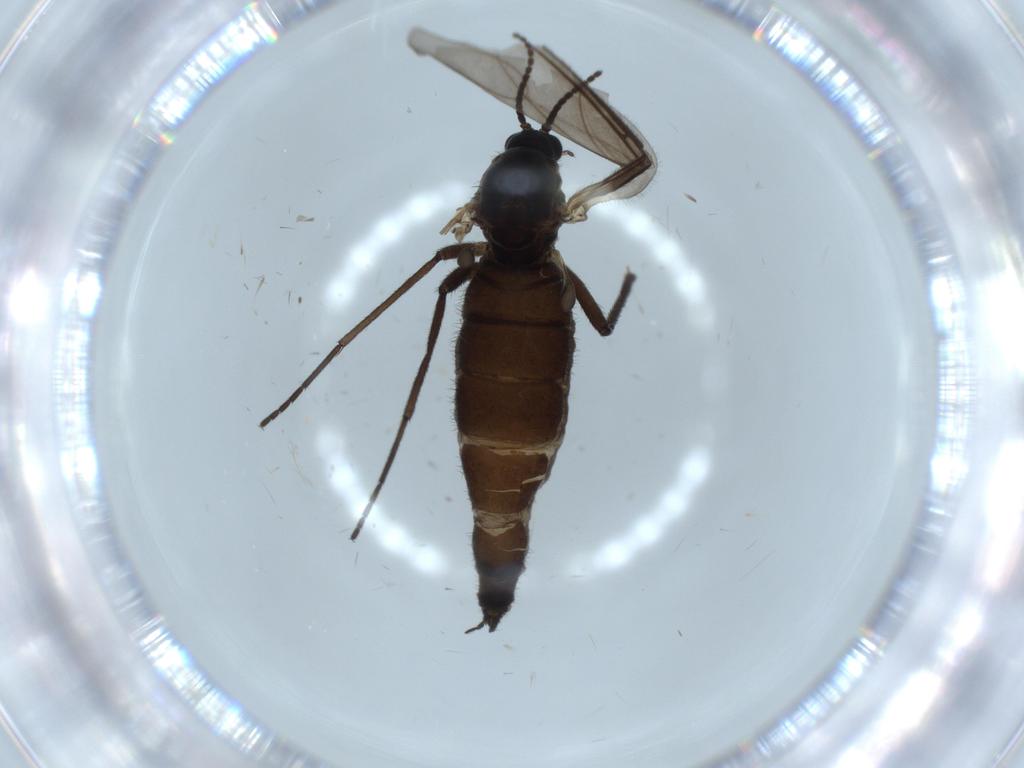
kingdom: Animalia
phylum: Arthropoda
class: Insecta
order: Diptera
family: Sciaridae
